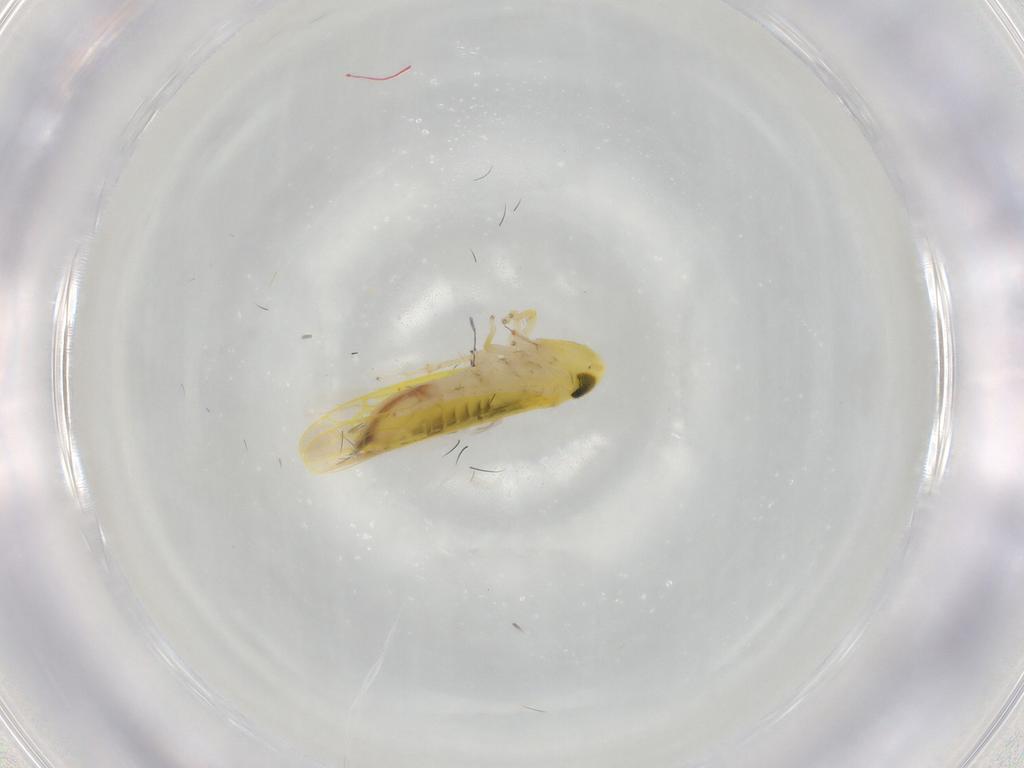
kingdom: Animalia
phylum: Arthropoda
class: Insecta
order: Hemiptera
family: Cicadellidae
